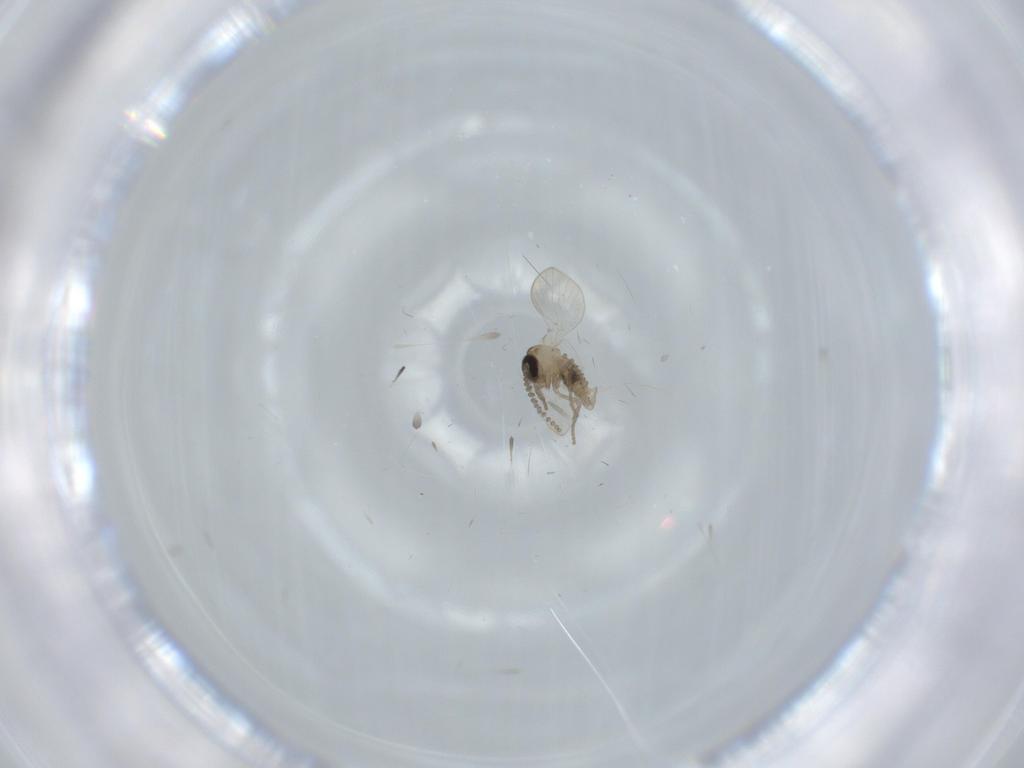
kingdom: Animalia
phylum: Arthropoda
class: Insecta
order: Diptera
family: Psychodidae
